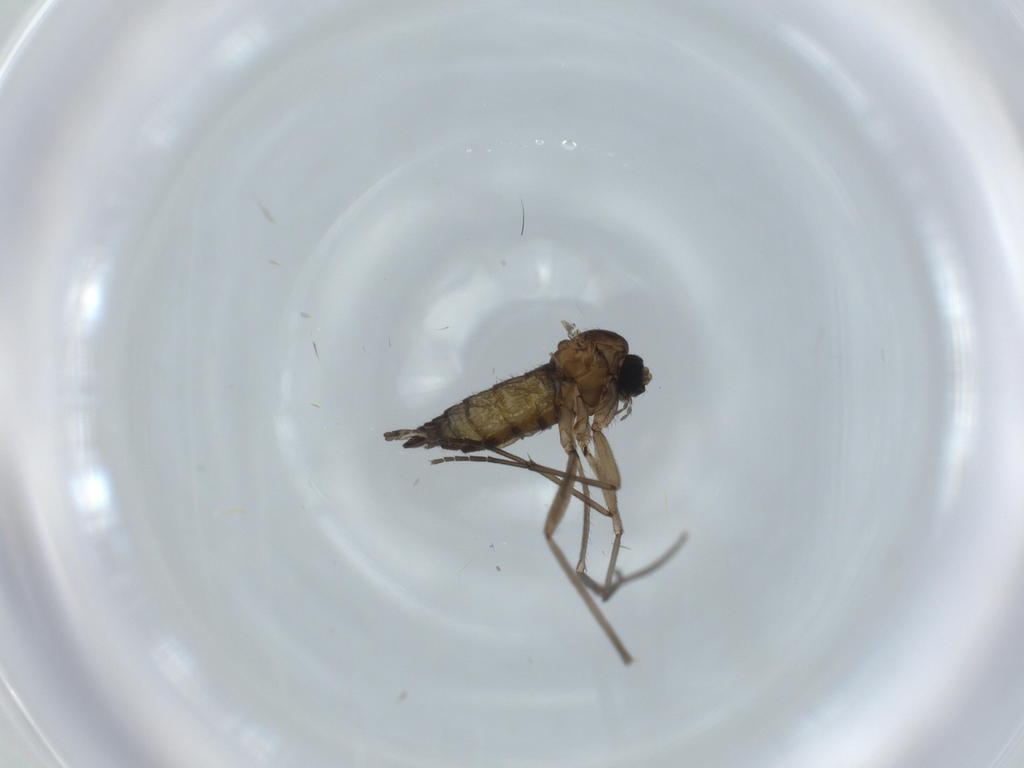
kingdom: Animalia
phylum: Arthropoda
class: Insecta
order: Diptera
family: Sciaridae
